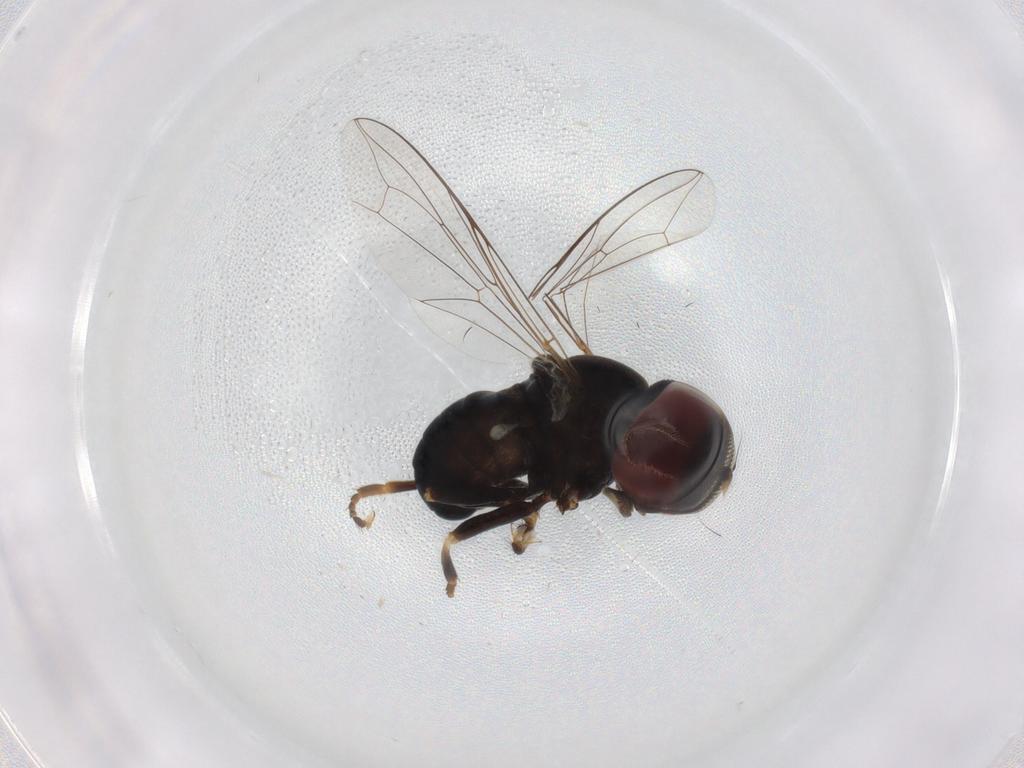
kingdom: Animalia
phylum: Arthropoda
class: Insecta
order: Diptera
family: Pipunculidae
